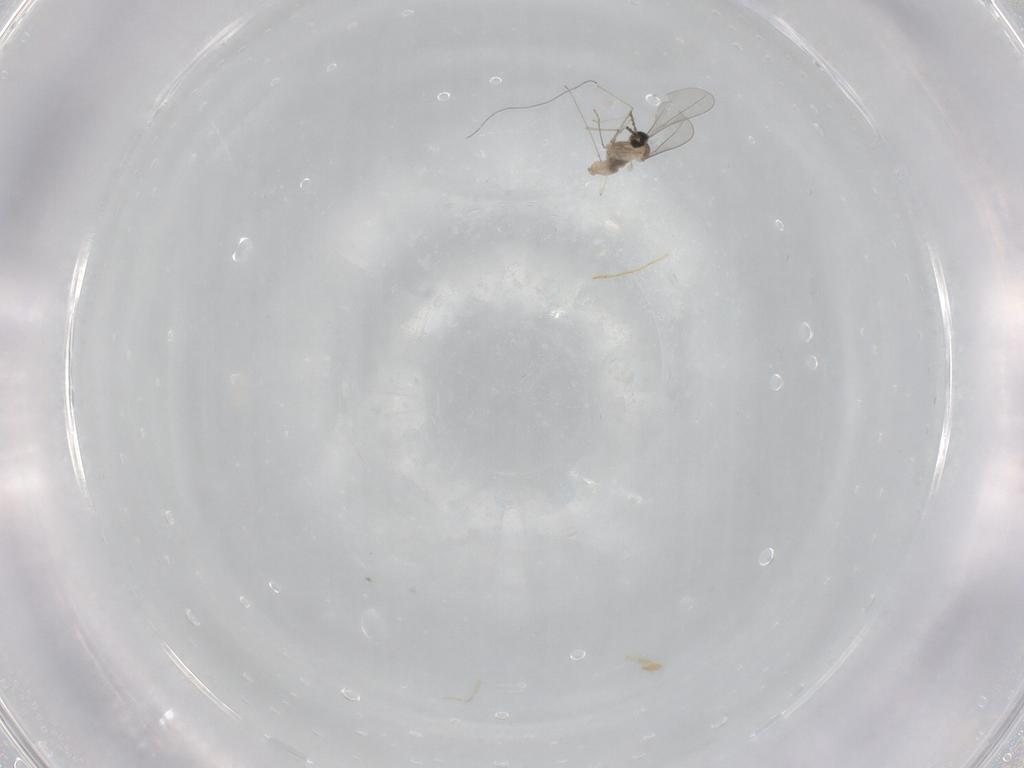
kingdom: Animalia
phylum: Arthropoda
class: Insecta
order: Diptera
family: Cecidomyiidae
